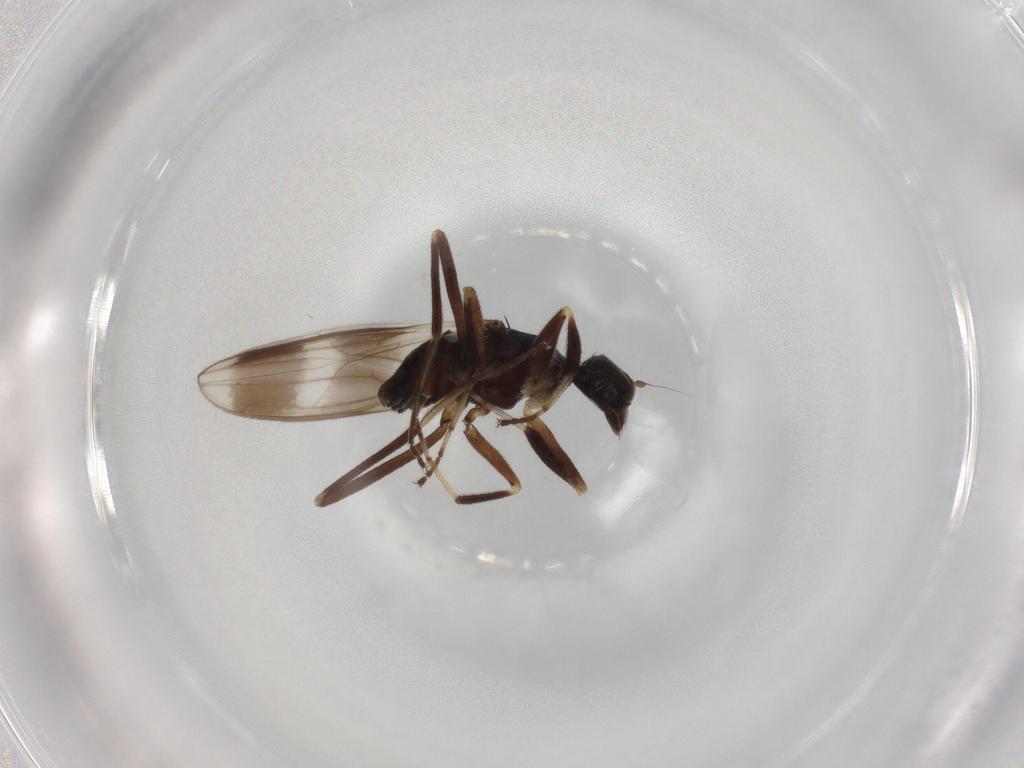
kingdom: Animalia
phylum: Arthropoda
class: Insecta
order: Diptera
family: Hybotidae
